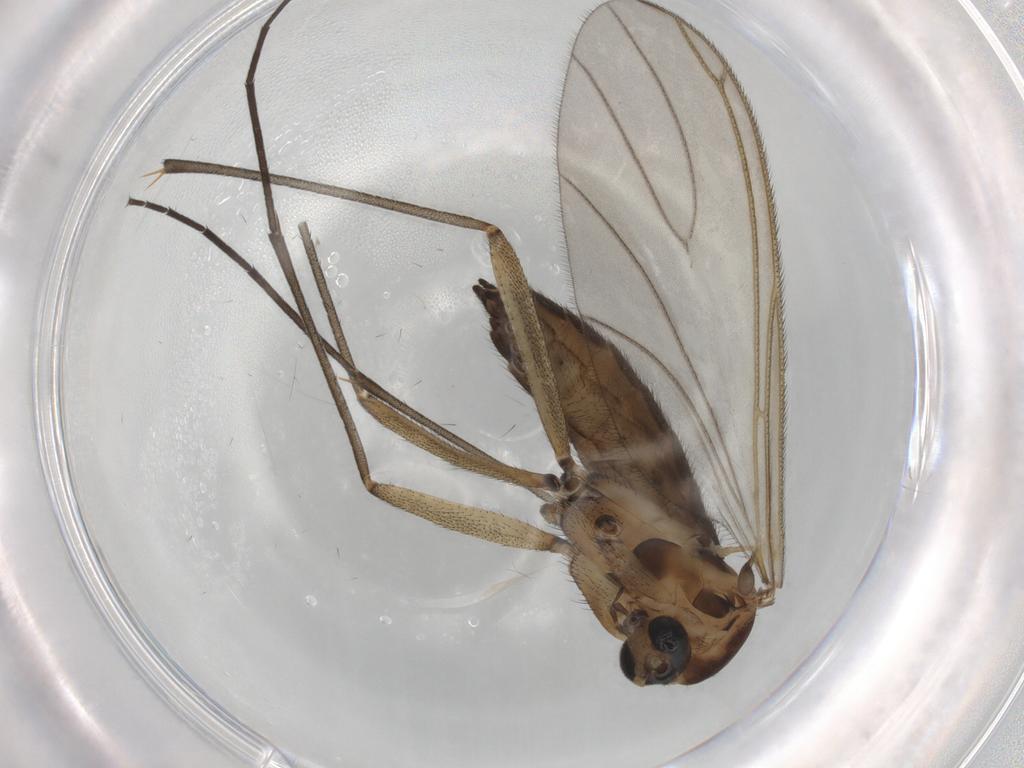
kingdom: Animalia
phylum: Arthropoda
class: Insecta
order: Diptera
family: Sciaridae
